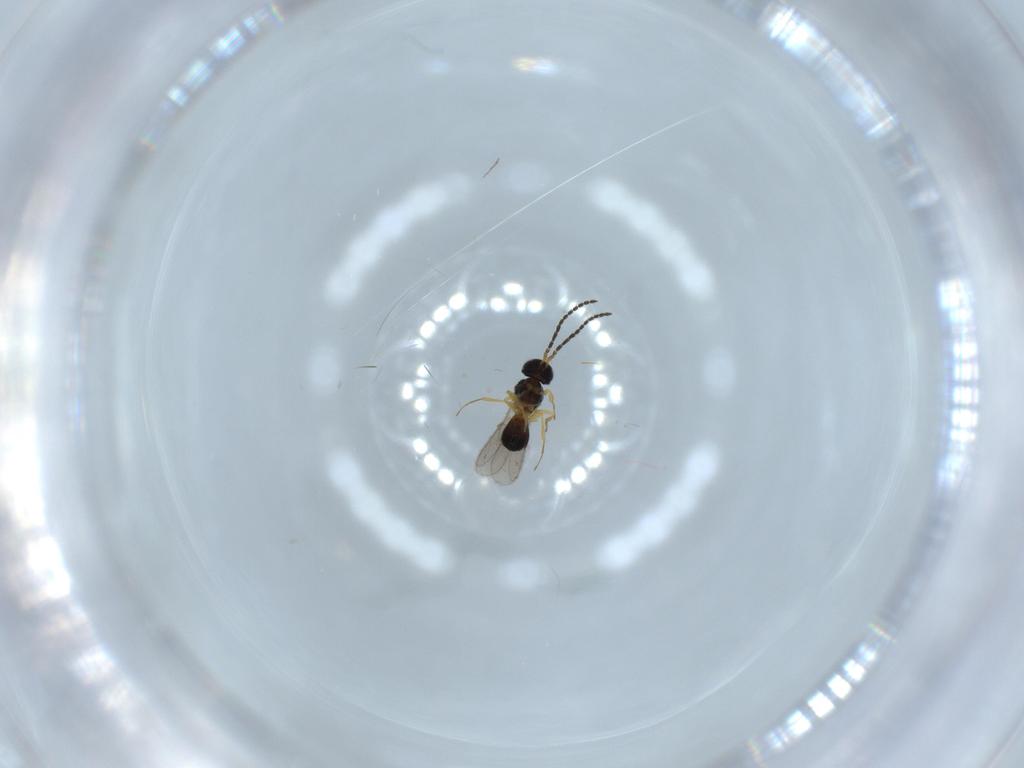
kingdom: Animalia
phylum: Arthropoda
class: Insecta
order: Hymenoptera
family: Scelionidae
